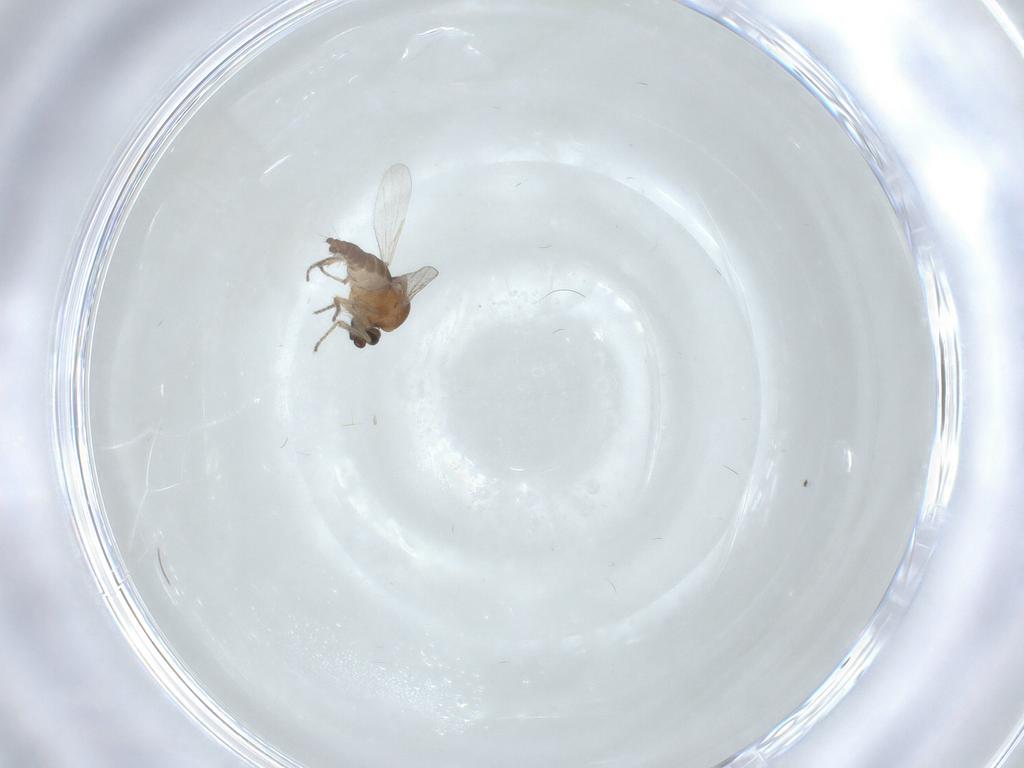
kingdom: Animalia
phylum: Arthropoda
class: Insecta
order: Diptera
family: Ceratopogonidae
